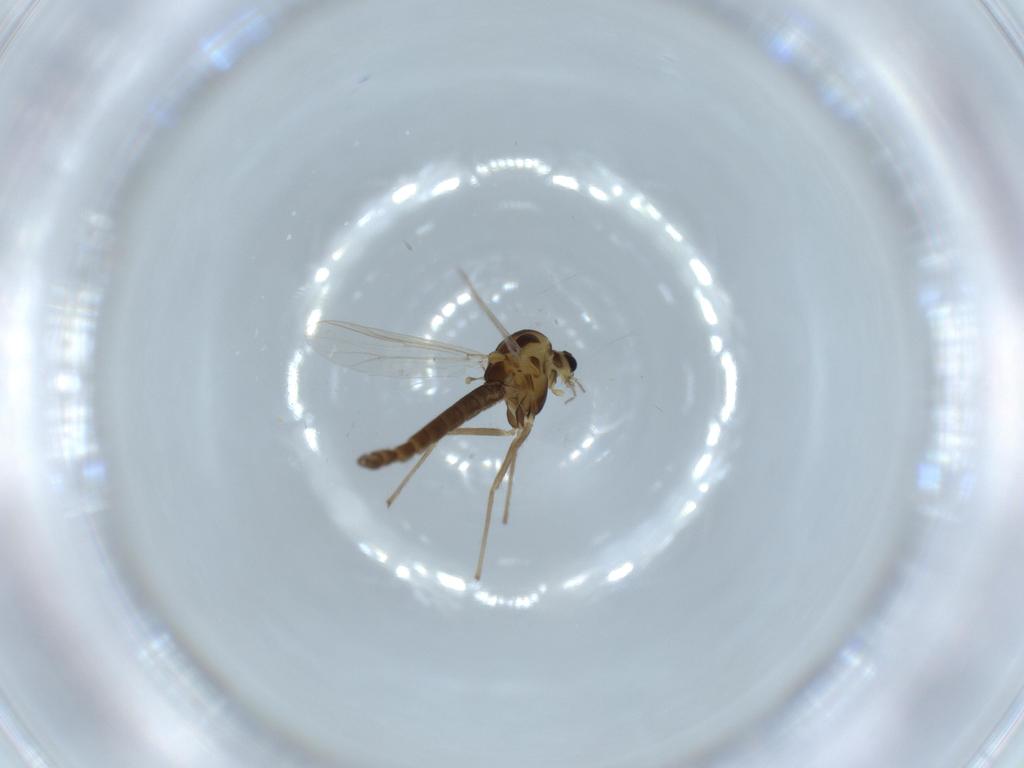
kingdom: Animalia
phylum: Arthropoda
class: Insecta
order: Diptera
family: Chironomidae
